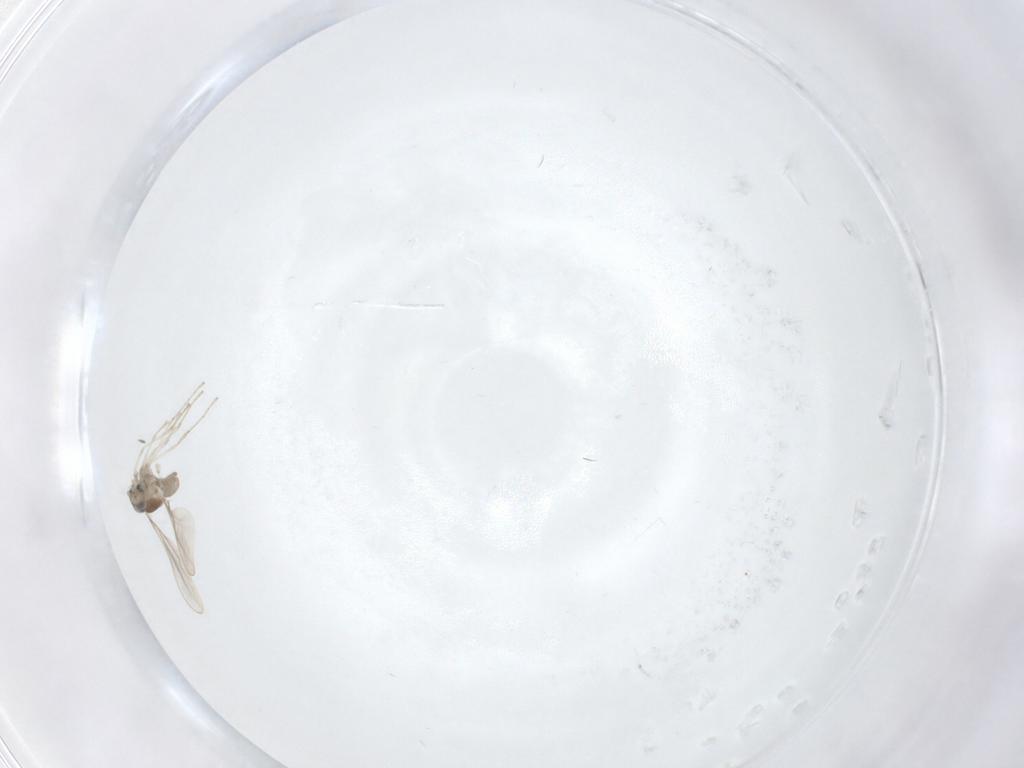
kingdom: Animalia
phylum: Arthropoda
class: Insecta
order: Diptera
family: Cecidomyiidae
